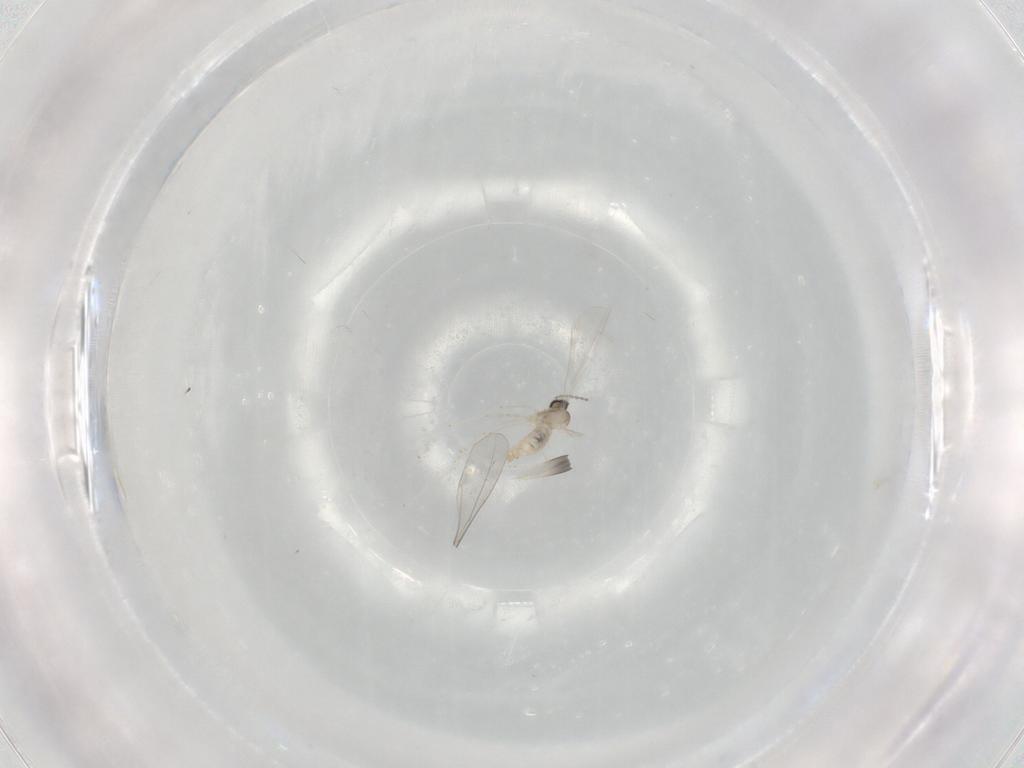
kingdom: Animalia
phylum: Arthropoda
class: Insecta
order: Diptera
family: Cecidomyiidae
